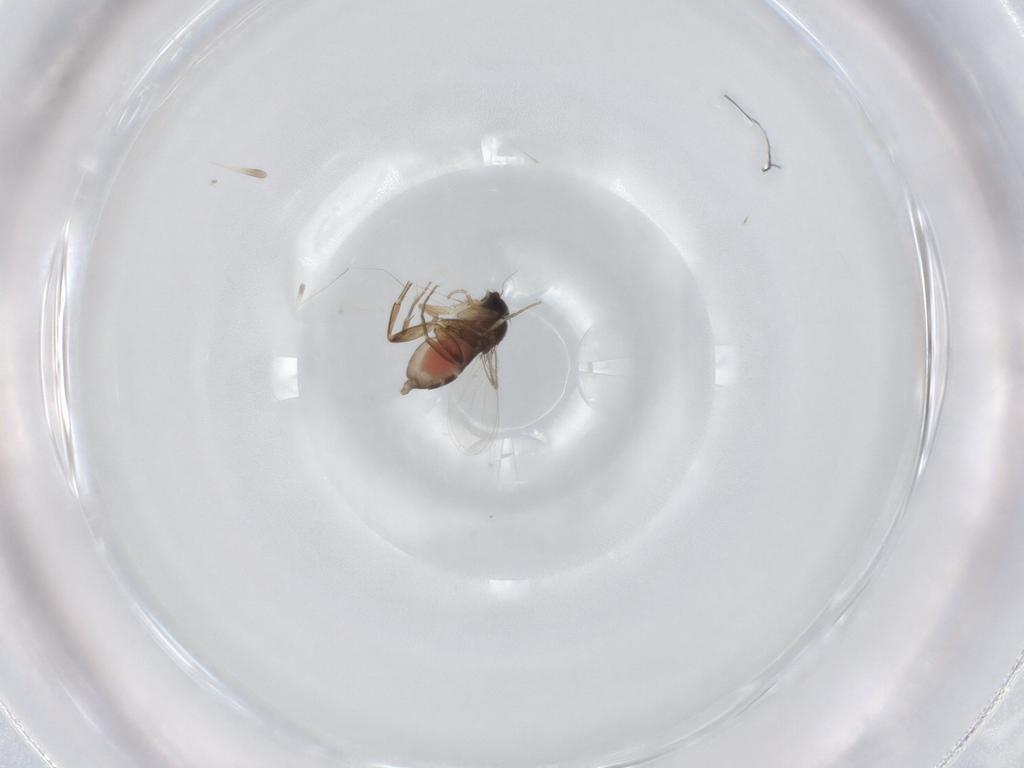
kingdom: Animalia
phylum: Arthropoda
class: Insecta
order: Diptera
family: Phoridae
